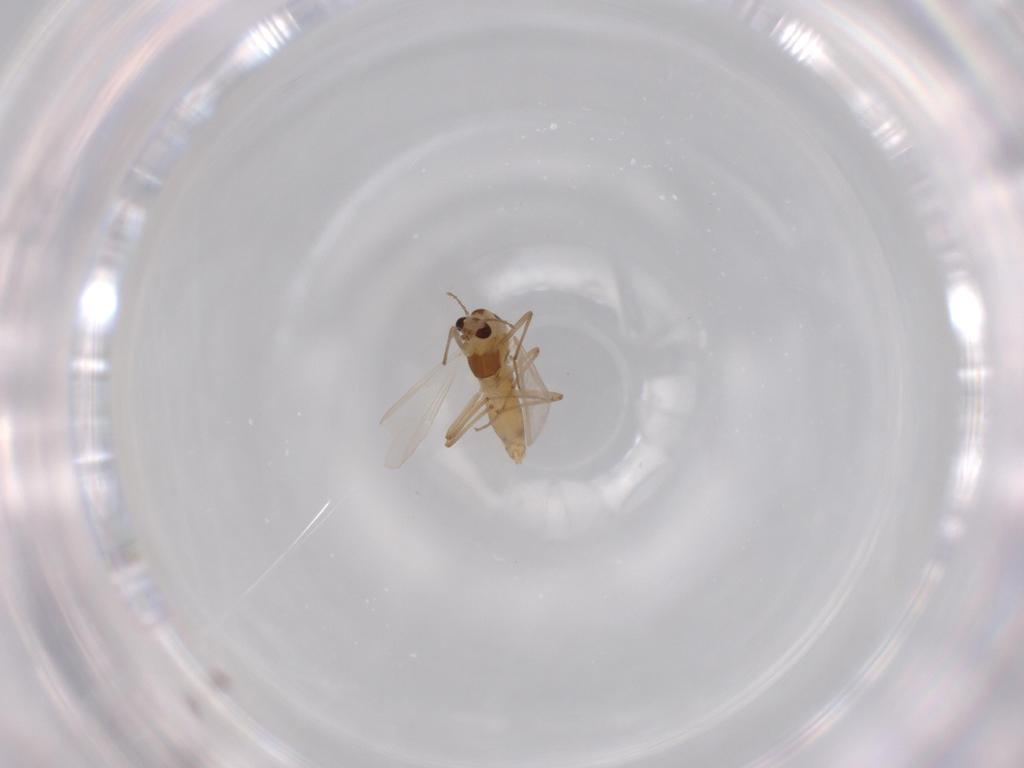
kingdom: Animalia
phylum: Arthropoda
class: Insecta
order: Diptera
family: Chironomidae
